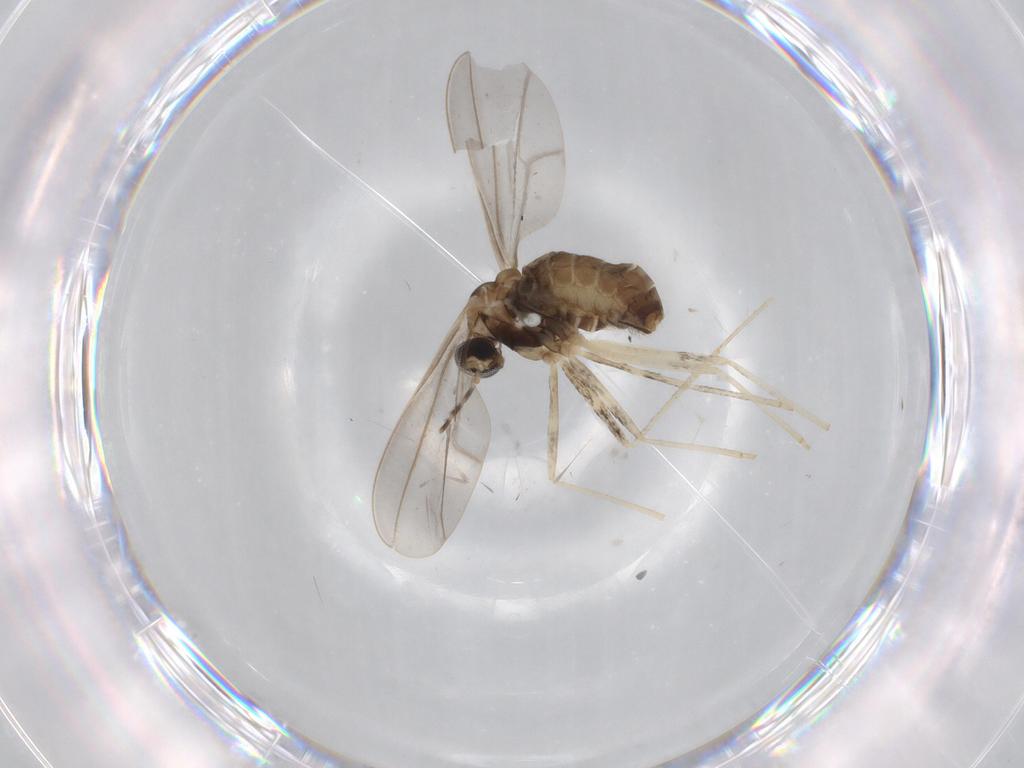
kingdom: Animalia
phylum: Arthropoda
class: Insecta
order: Diptera
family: Cecidomyiidae
